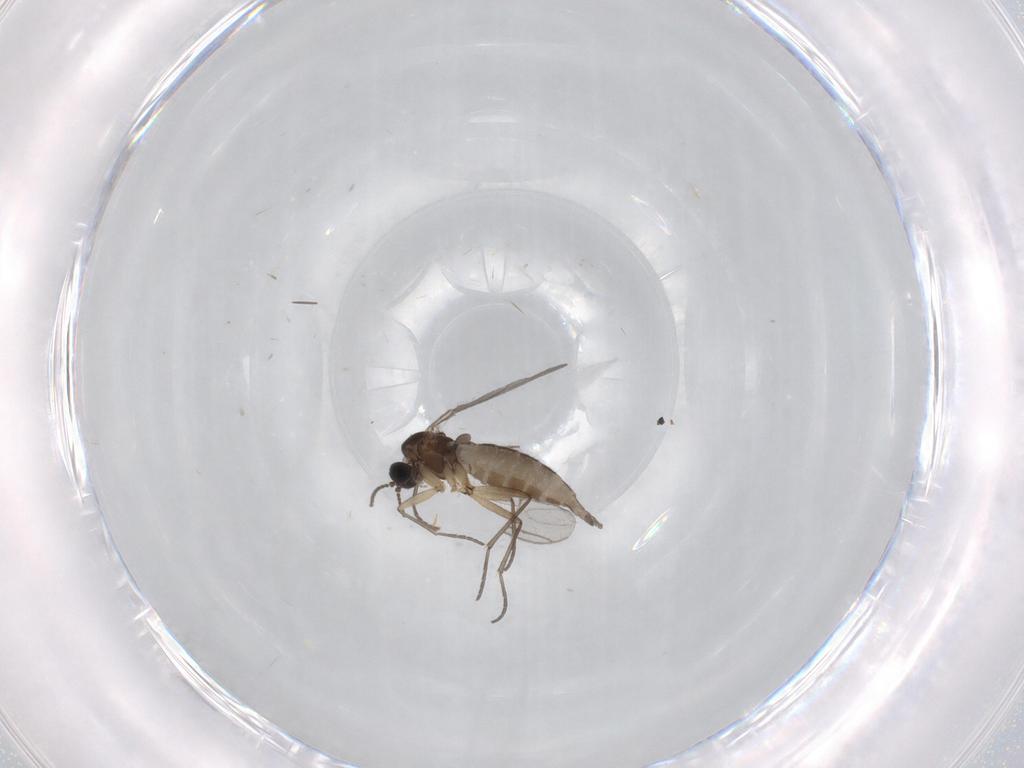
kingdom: Animalia
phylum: Arthropoda
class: Insecta
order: Diptera
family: Sciaridae
